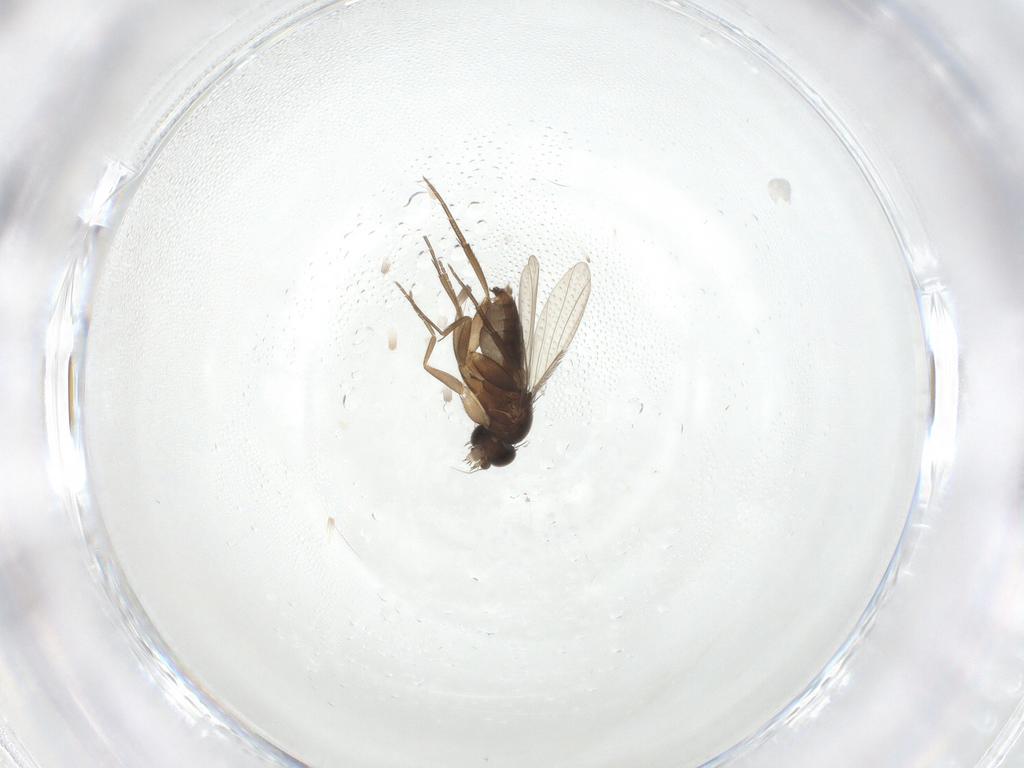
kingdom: Animalia
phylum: Arthropoda
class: Insecta
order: Diptera
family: Phoridae
